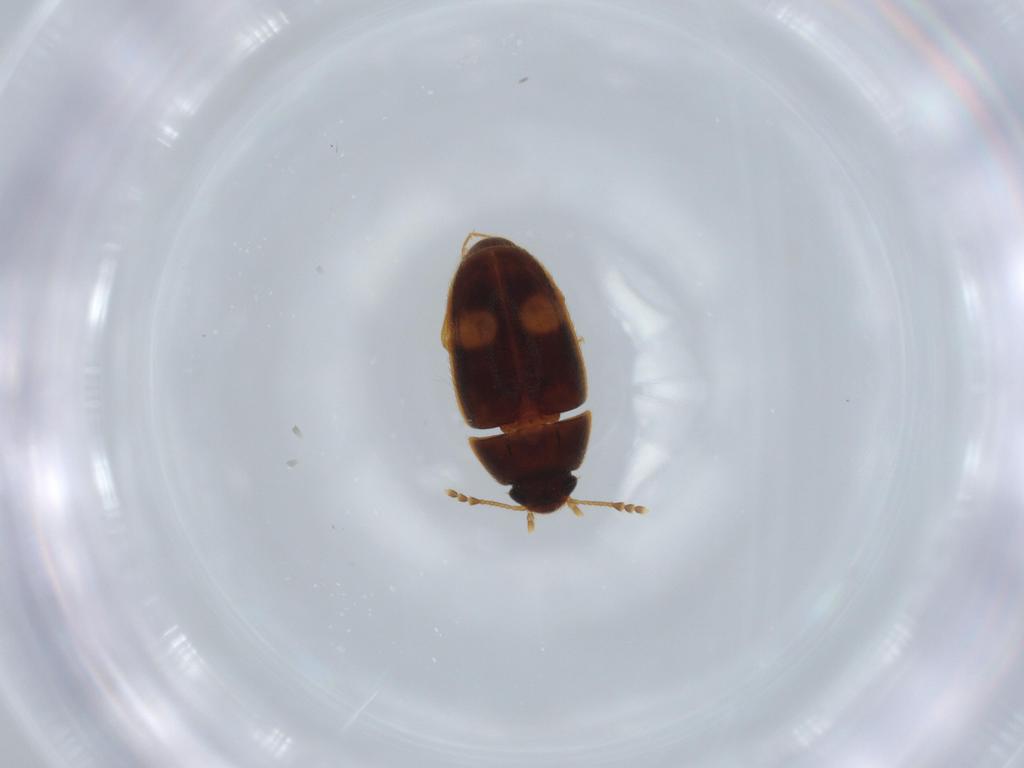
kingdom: Animalia
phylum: Arthropoda
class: Insecta
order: Coleoptera
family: Mycetophagidae
